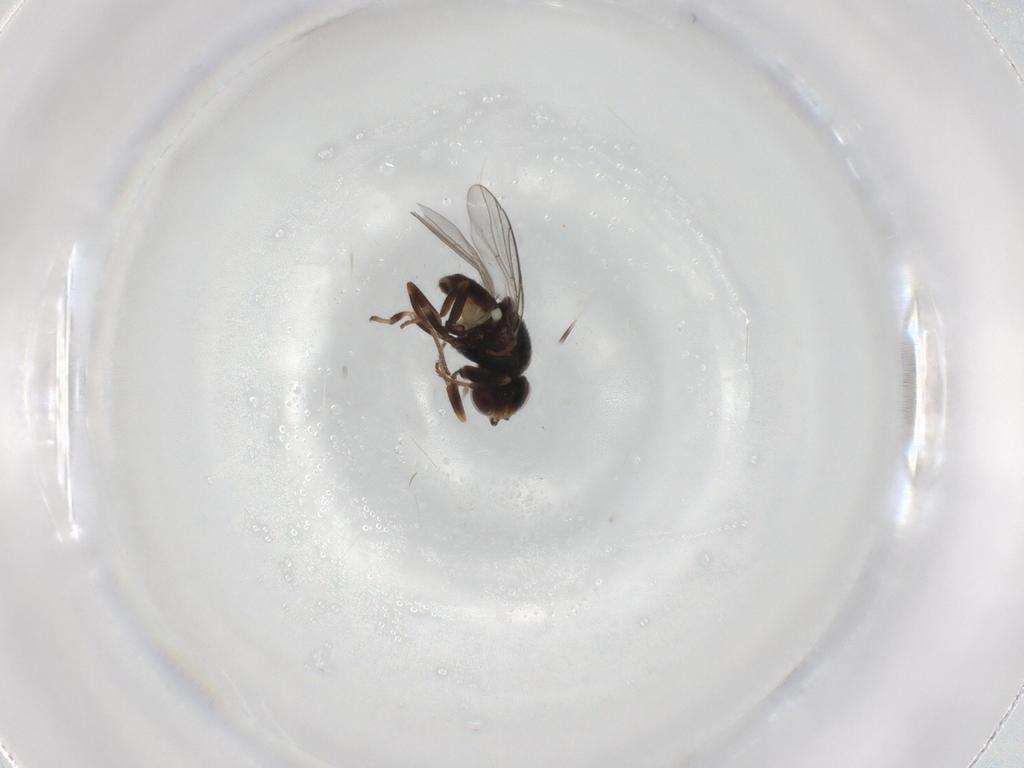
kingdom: Animalia
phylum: Arthropoda
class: Insecta
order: Diptera
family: Chloropidae
